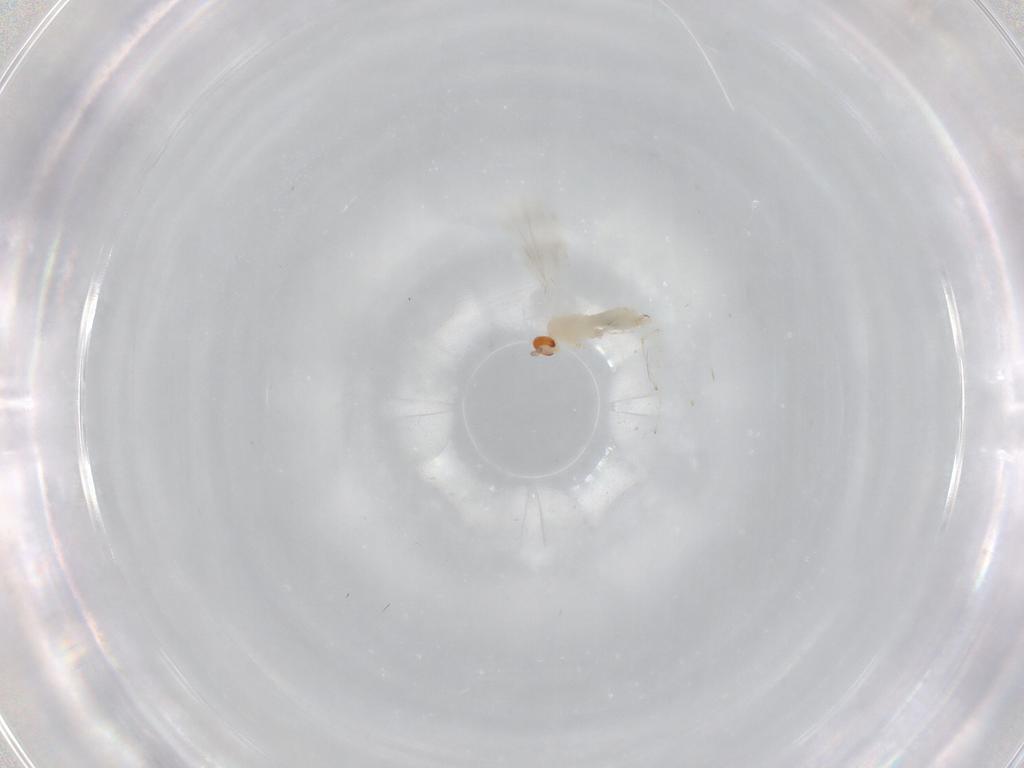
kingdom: Animalia
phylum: Arthropoda
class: Insecta
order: Diptera
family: Tabanidae
